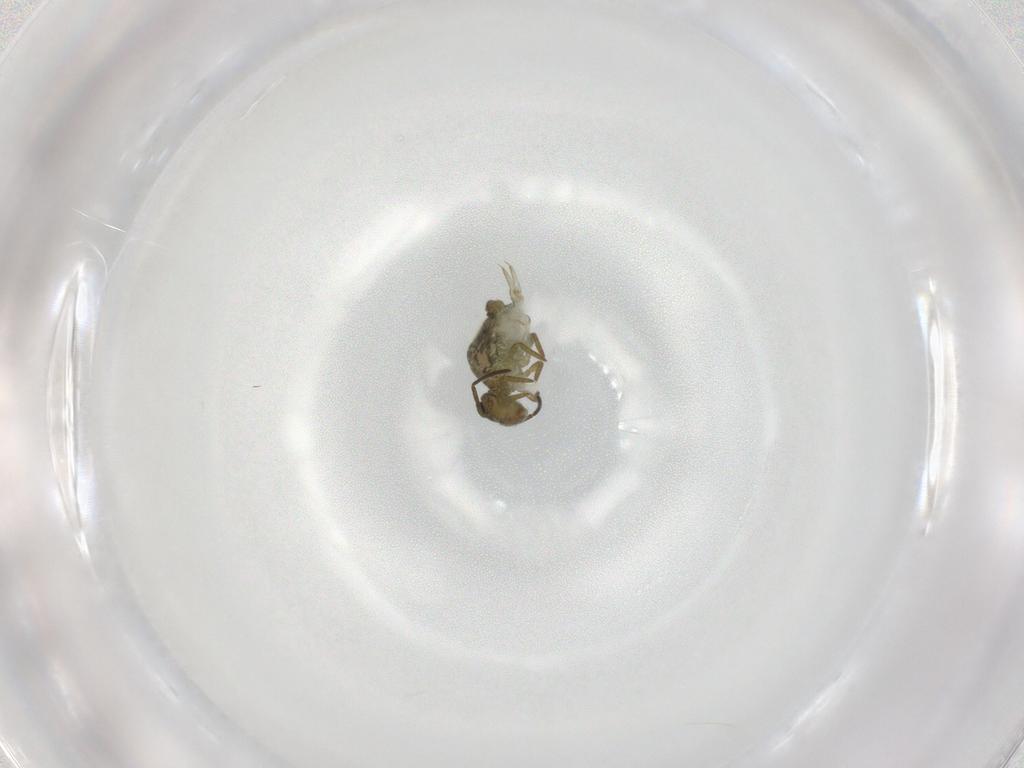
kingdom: Animalia
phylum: Arthropoda
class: Collembola
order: Symphypleona
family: Sminthuridae
